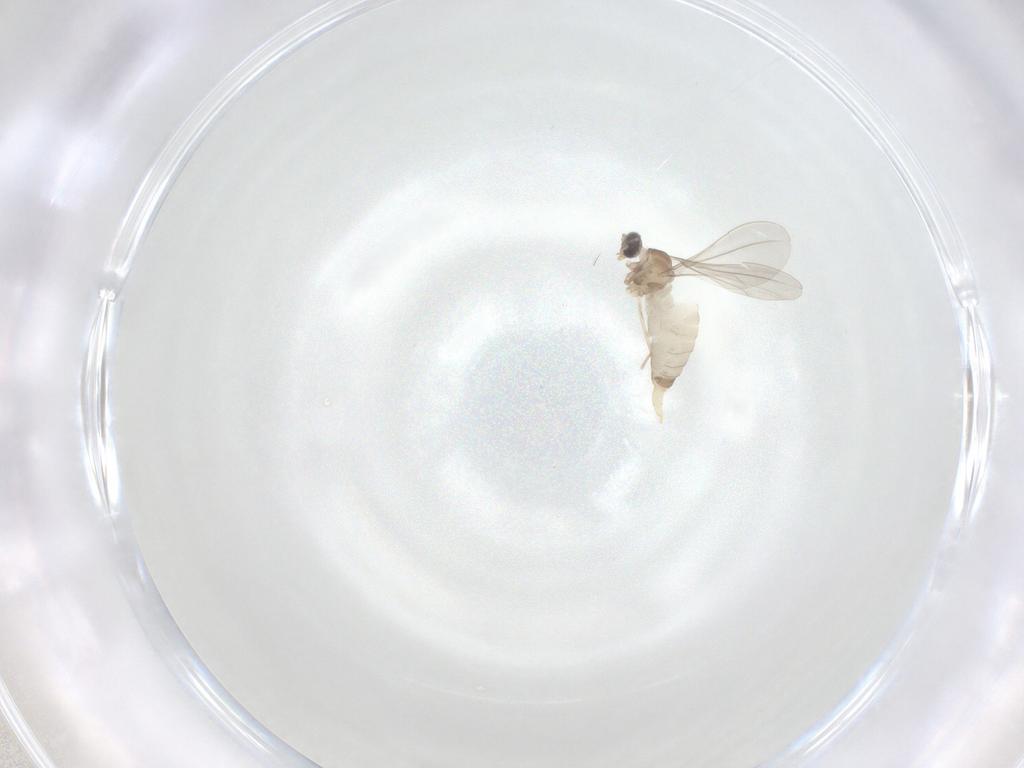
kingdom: Animalia
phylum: Arthropoda
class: Insecta
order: Diptera
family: Cecidomyiidae
